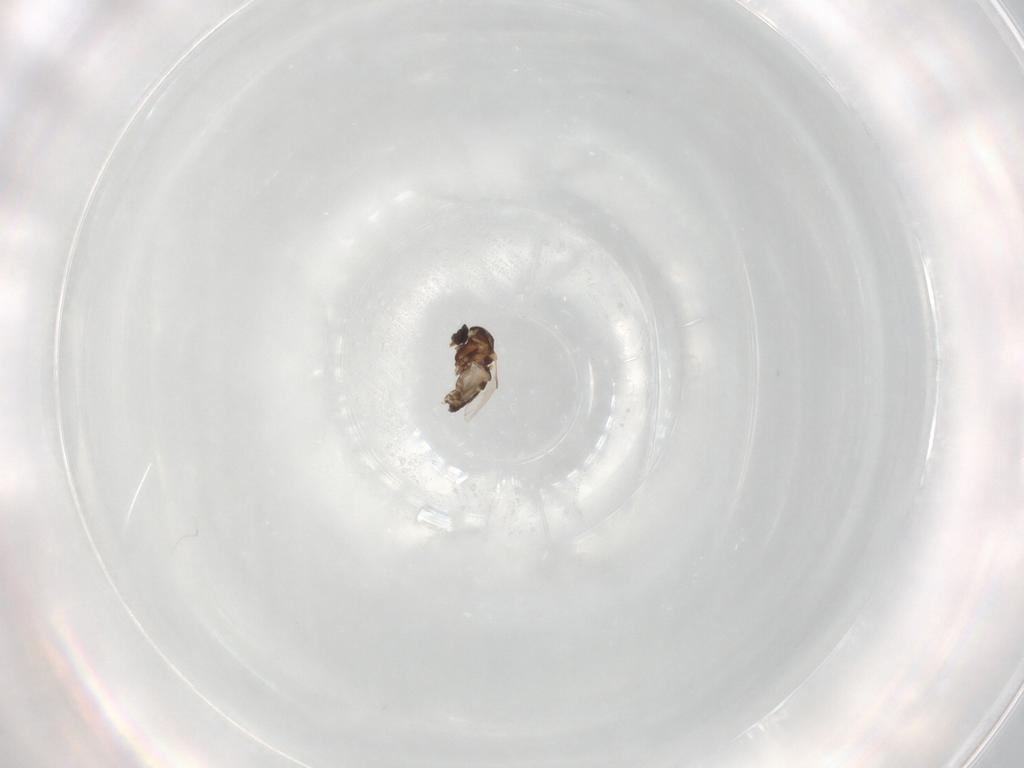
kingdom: Animalia
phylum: Arthropoda
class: Insecta
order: Diptera
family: Ceratopogonidae
